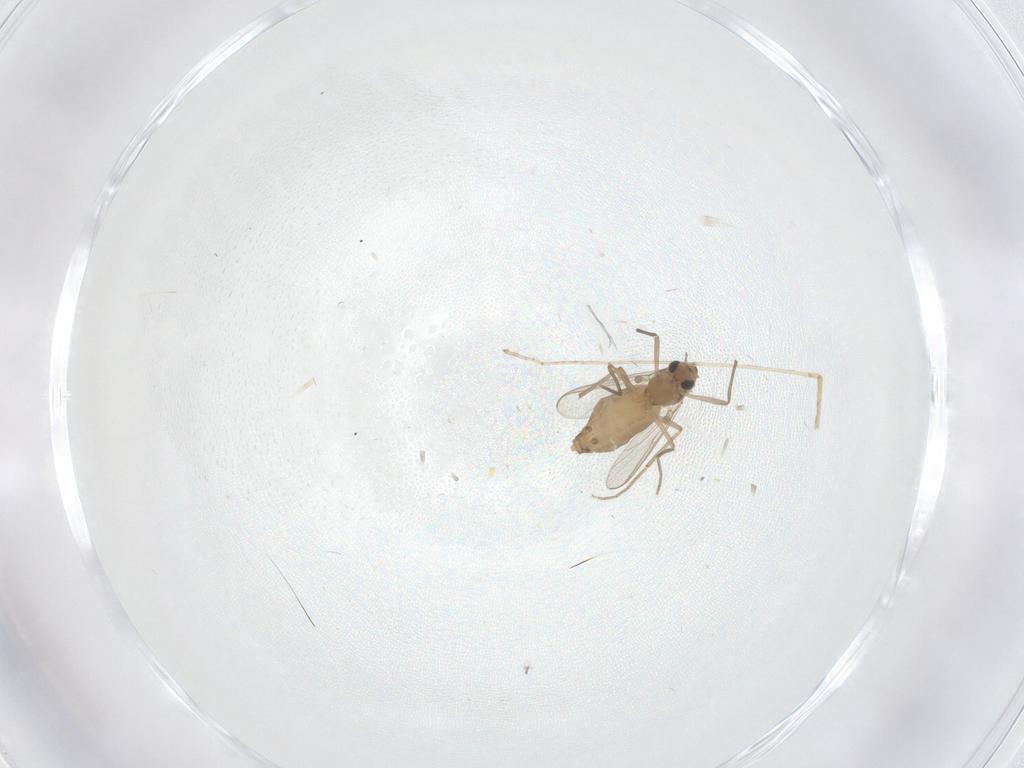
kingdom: Animalia
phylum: Arthropoda
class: Insecta
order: Diptera
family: Chironomidae
